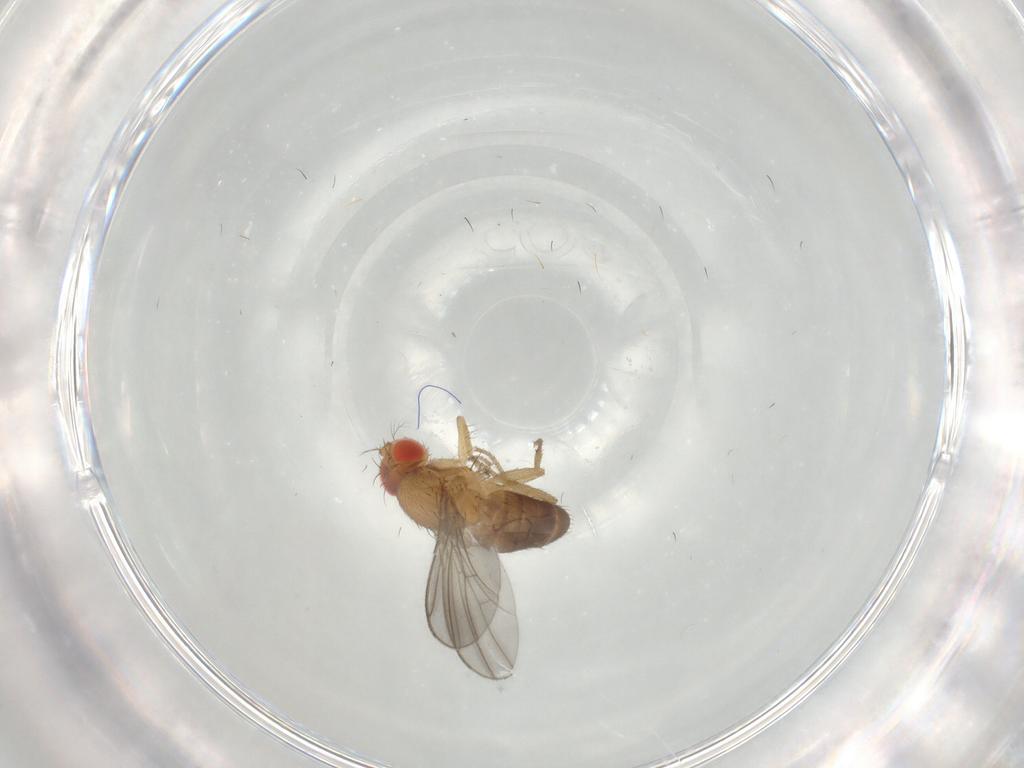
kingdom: Animalia
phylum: Arthropoda
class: Insecta
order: Diptera
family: Drosophilidae
